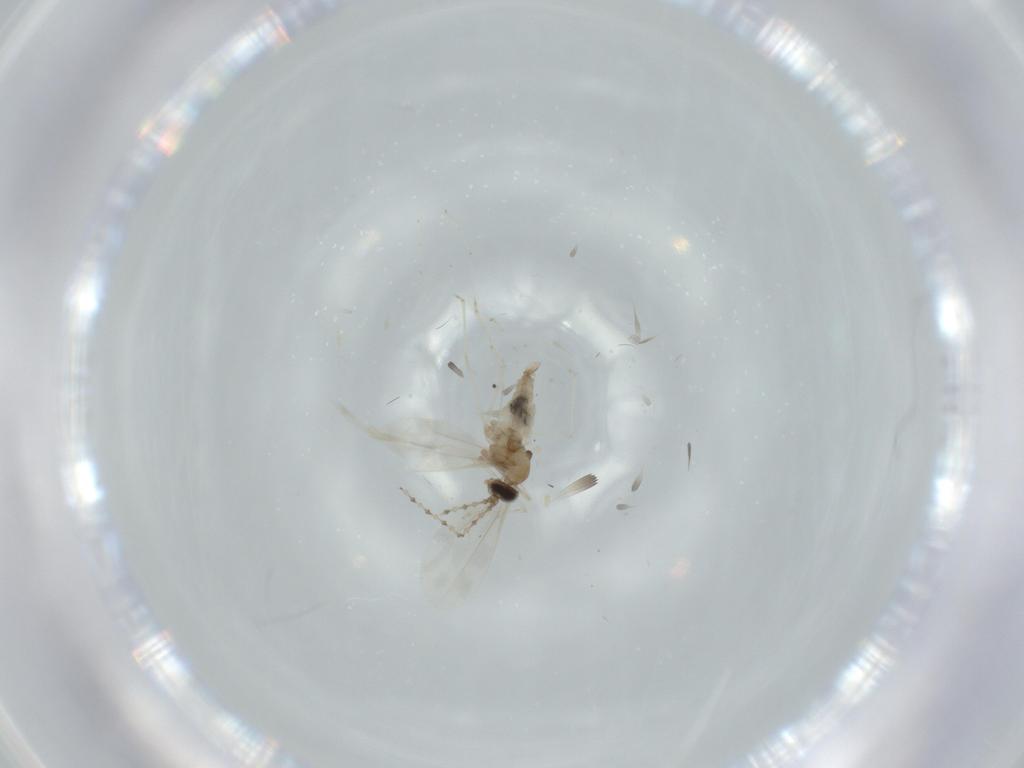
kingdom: Animalia
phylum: Arthropoda
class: Insecta
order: Diptera
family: Cecidomyiidae
